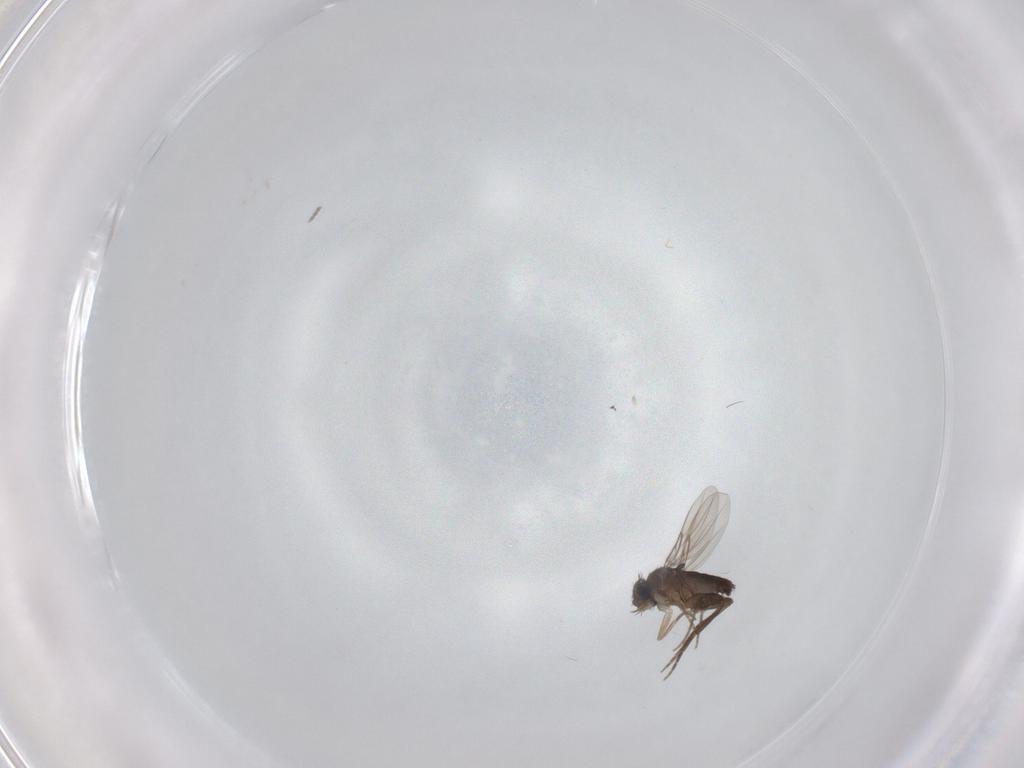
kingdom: Animalia
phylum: Arthropoda
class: Insecta
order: Diptera
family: Phoridae
